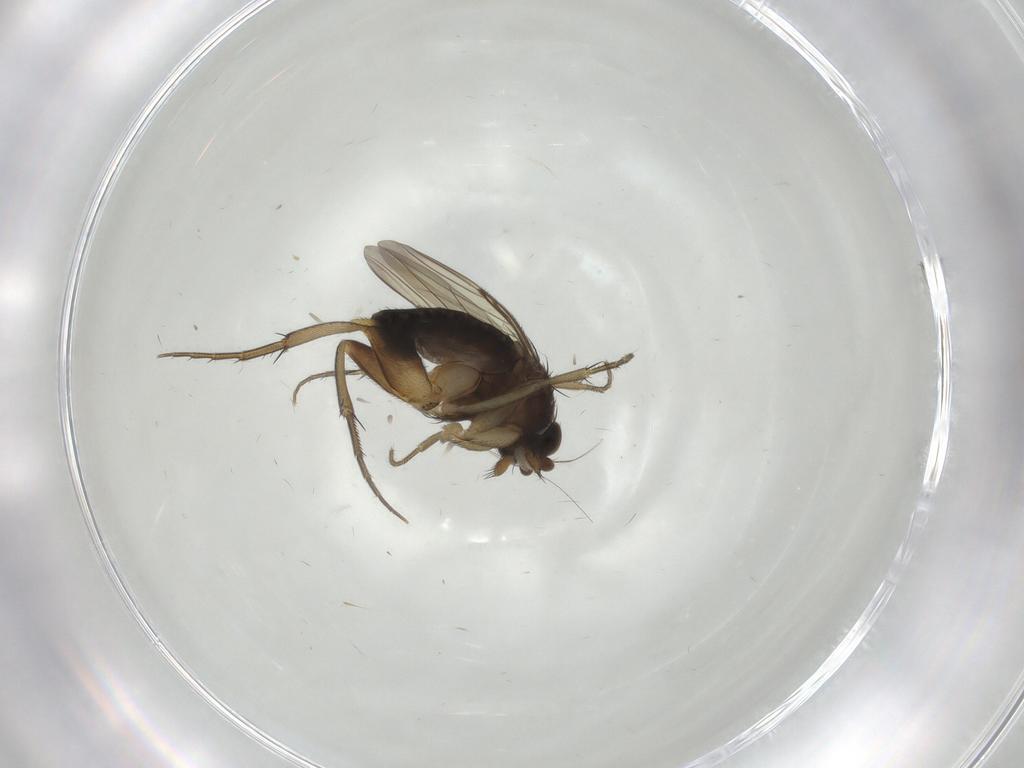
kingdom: Animalia
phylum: Arthropoda
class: Insecta
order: Diptera
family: Phoridae
